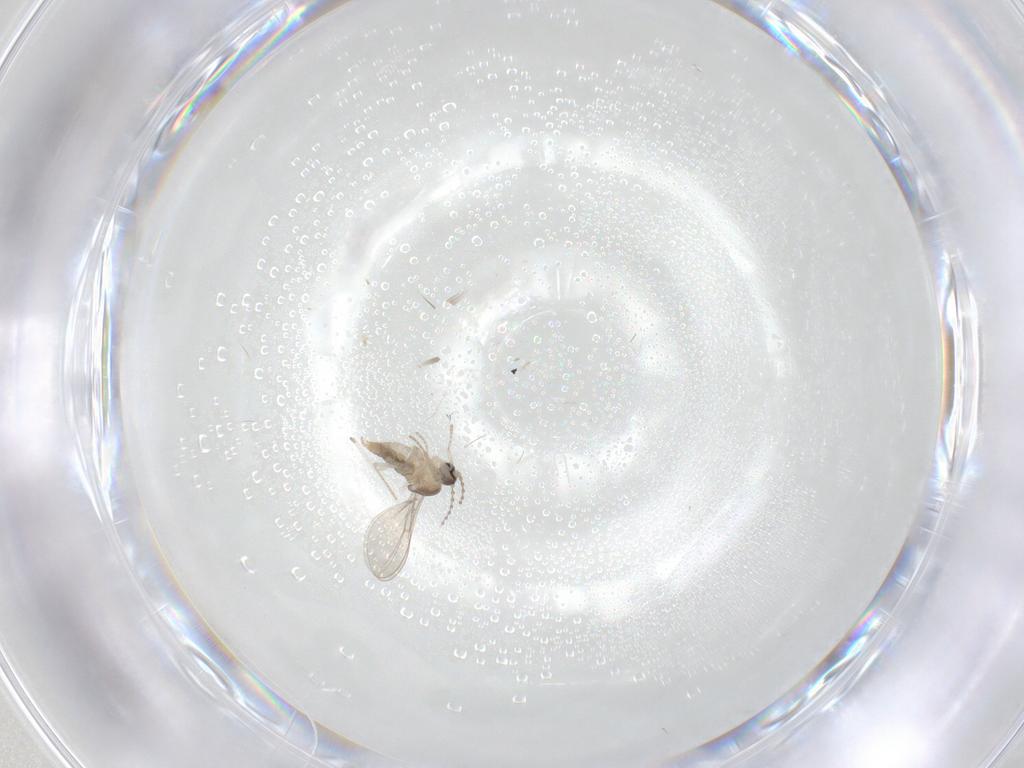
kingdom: Animalia
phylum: Arthropoda
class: Insecta
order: Diptera
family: Cecidomyiidae
